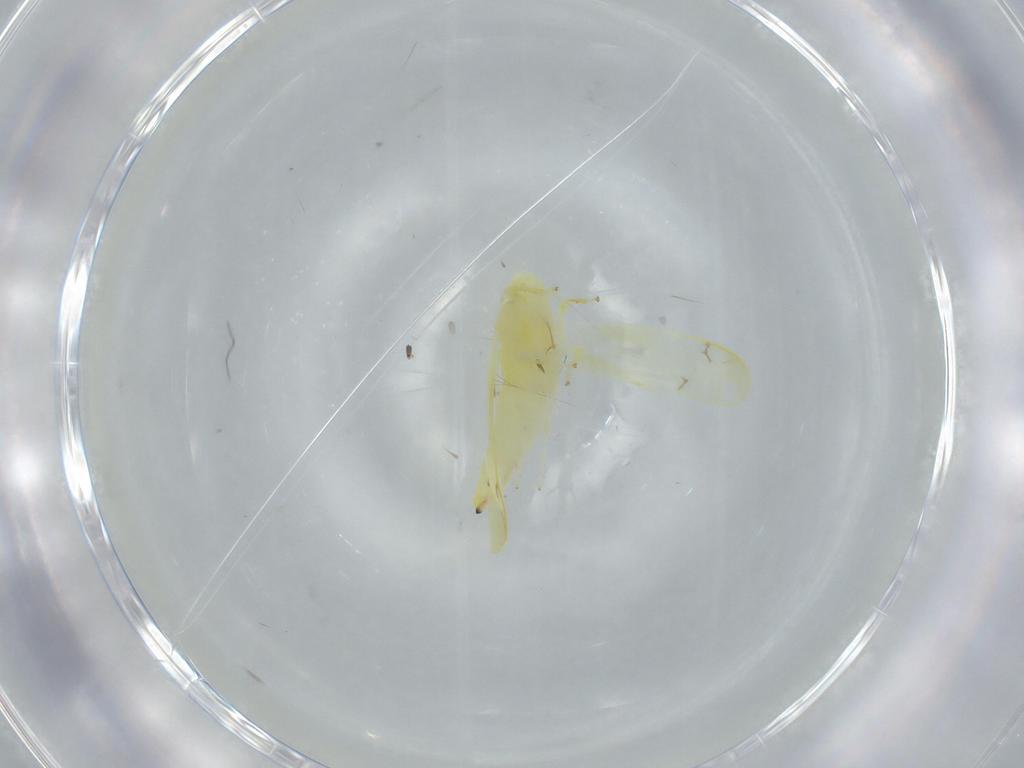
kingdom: Animalia
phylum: Arthropoda
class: Insecta
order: Hemiptera
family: Cicadellidae
